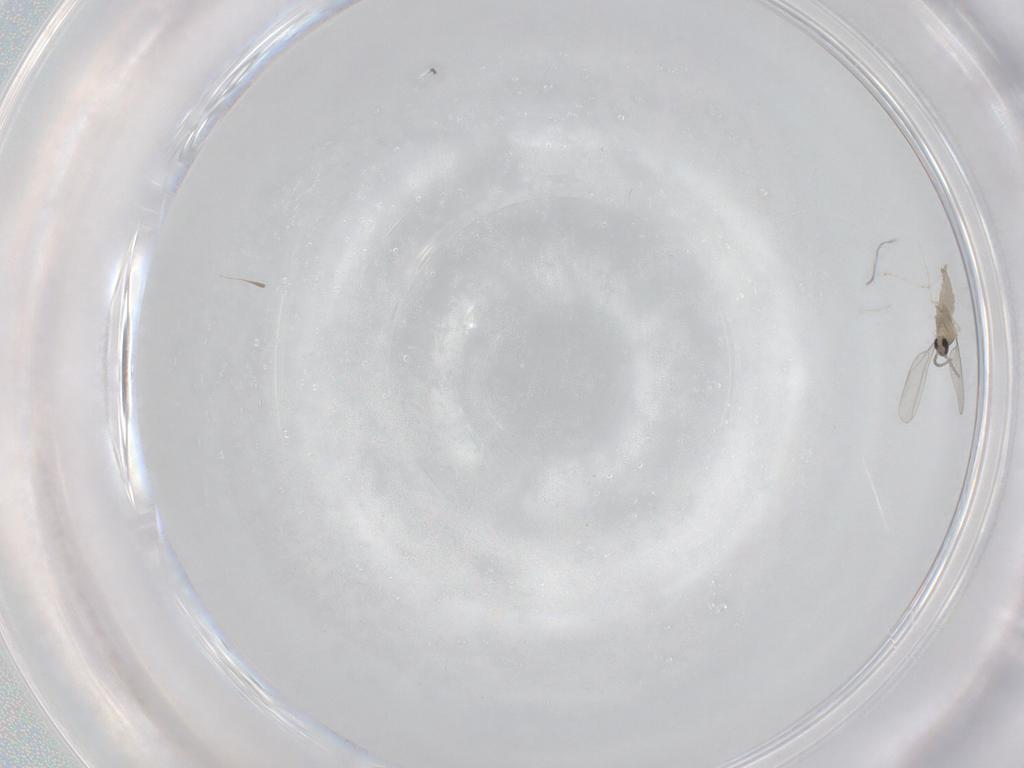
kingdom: Animalia
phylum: Arthropoda
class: Insecta
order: Diptera
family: Cecidomyiidae
